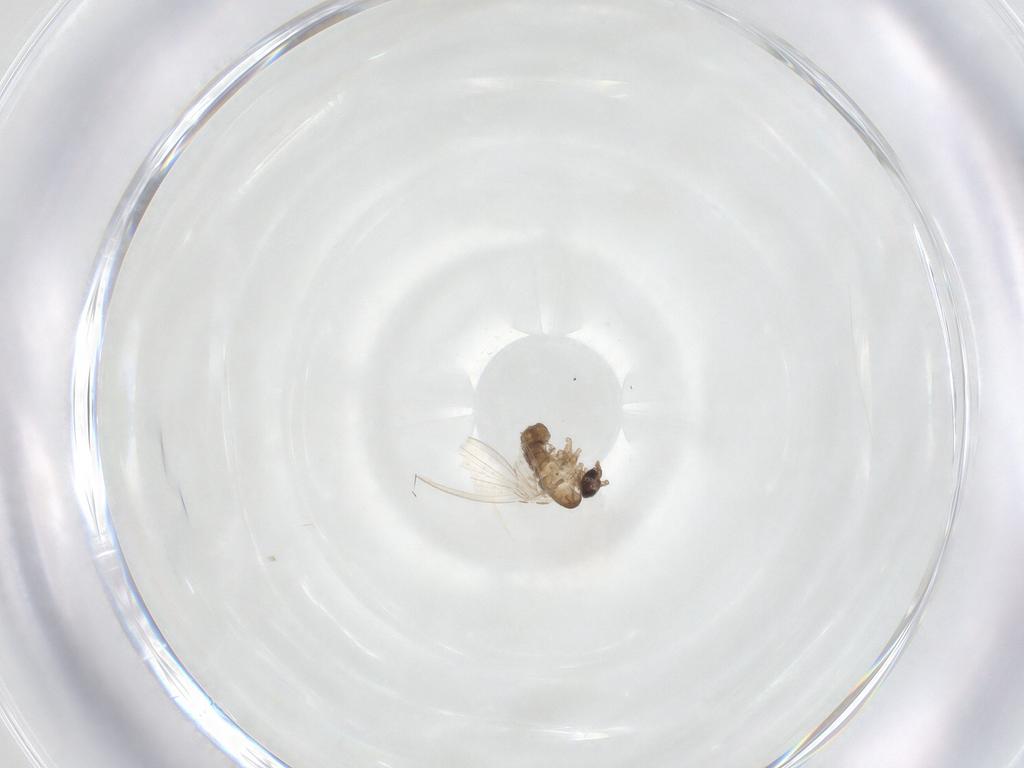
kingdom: Animalia
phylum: Arthropoda
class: Insecta
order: Diptera
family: Psychodidae
